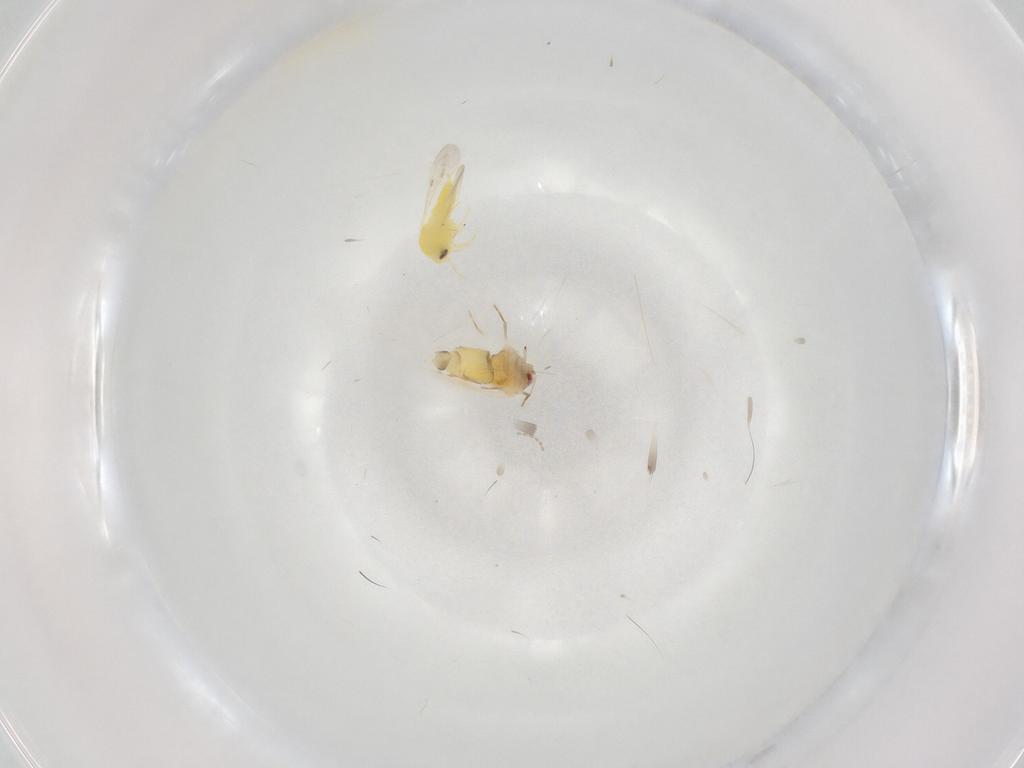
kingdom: Animalia
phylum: Arthropoda
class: Insecta
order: Hemiptera
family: Aleyrodidae
